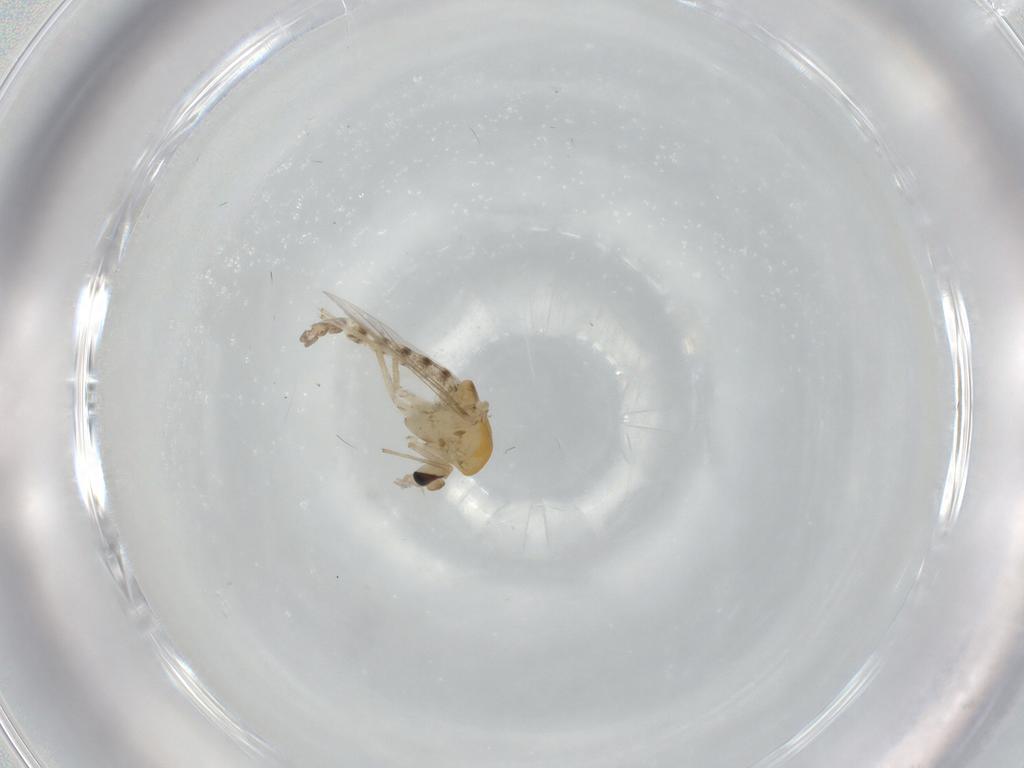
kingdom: Animalia
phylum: Arthropoda
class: Insecta
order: Diptera
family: Chironomidae
